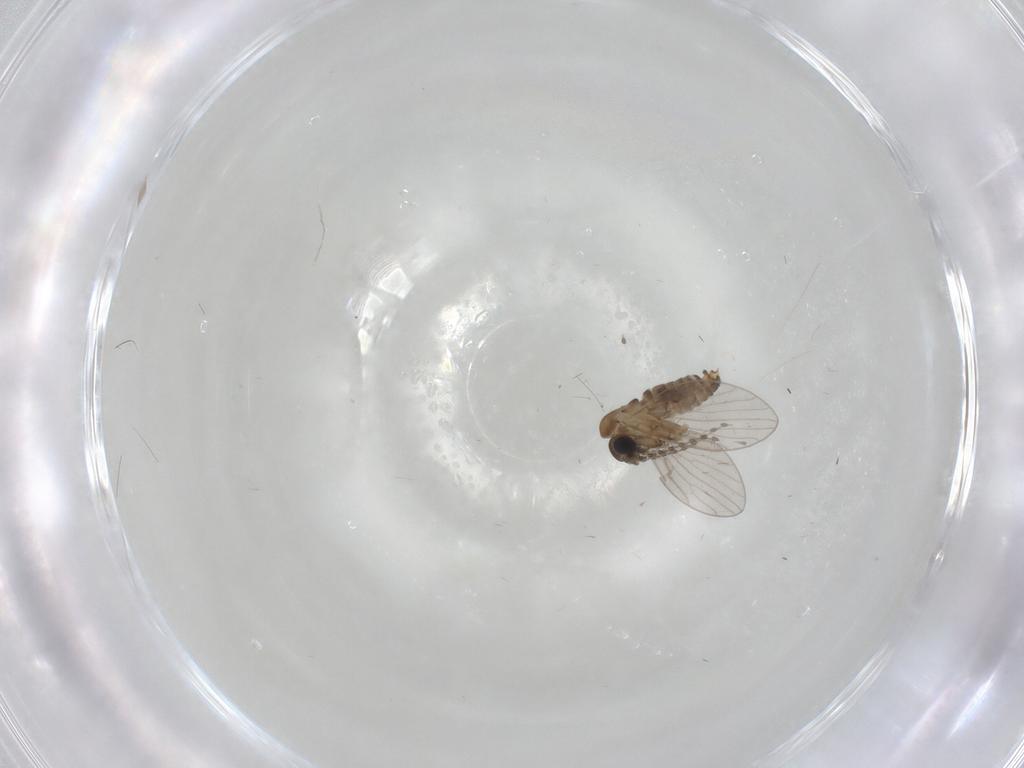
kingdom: Animalia
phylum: Arthropoda
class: Insecta
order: Diptera
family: Psychodidae
